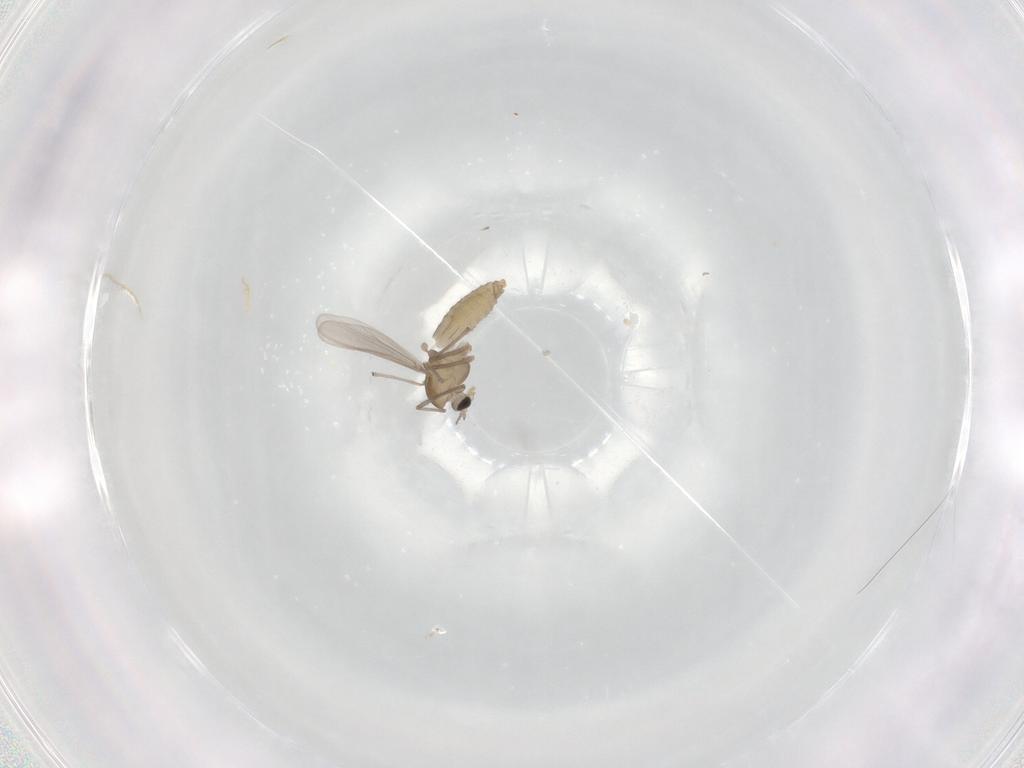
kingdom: Animalia
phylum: Arthropoda
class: Insecta
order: Diptera
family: Chironomidae
